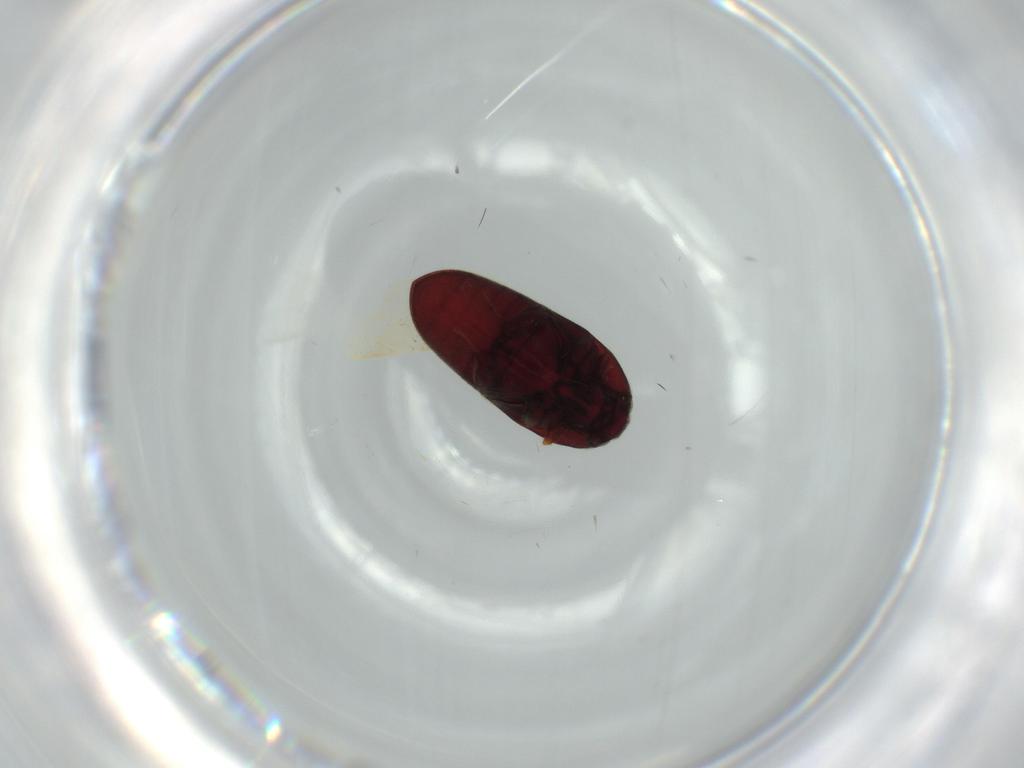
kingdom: Animalia
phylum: Arthropoda
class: Insecta
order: Coleoptera
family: Throscidae
